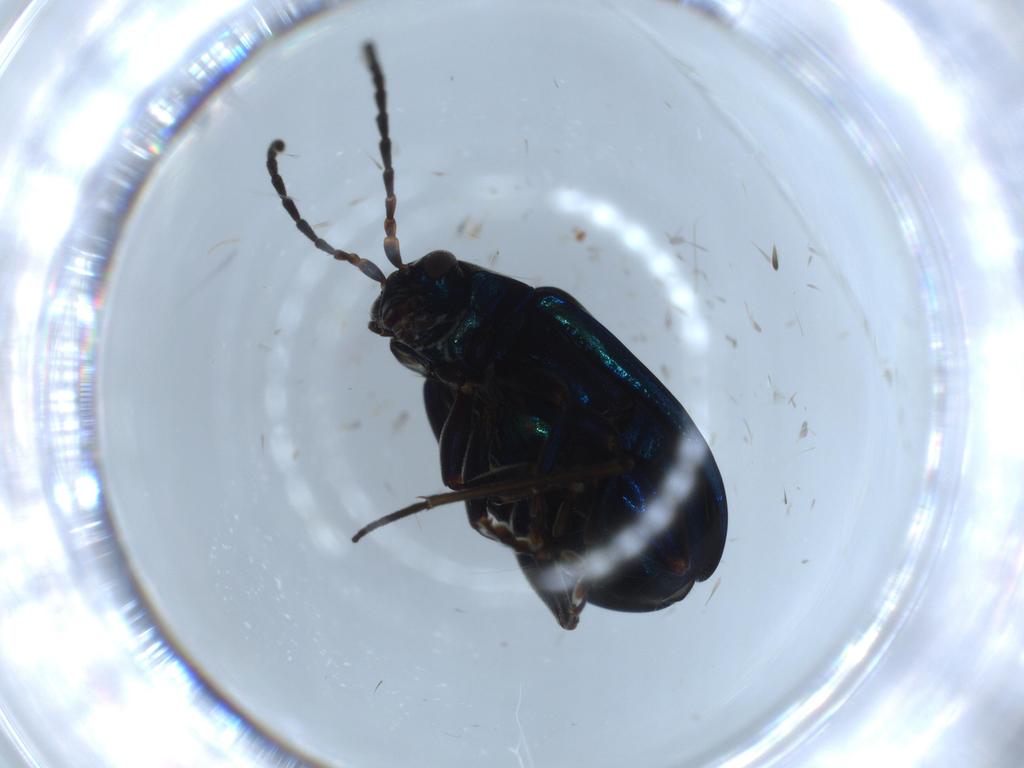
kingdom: Animalia
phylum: Arthropoda
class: Insecta
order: Coleoptera
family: Chrysomelidae
